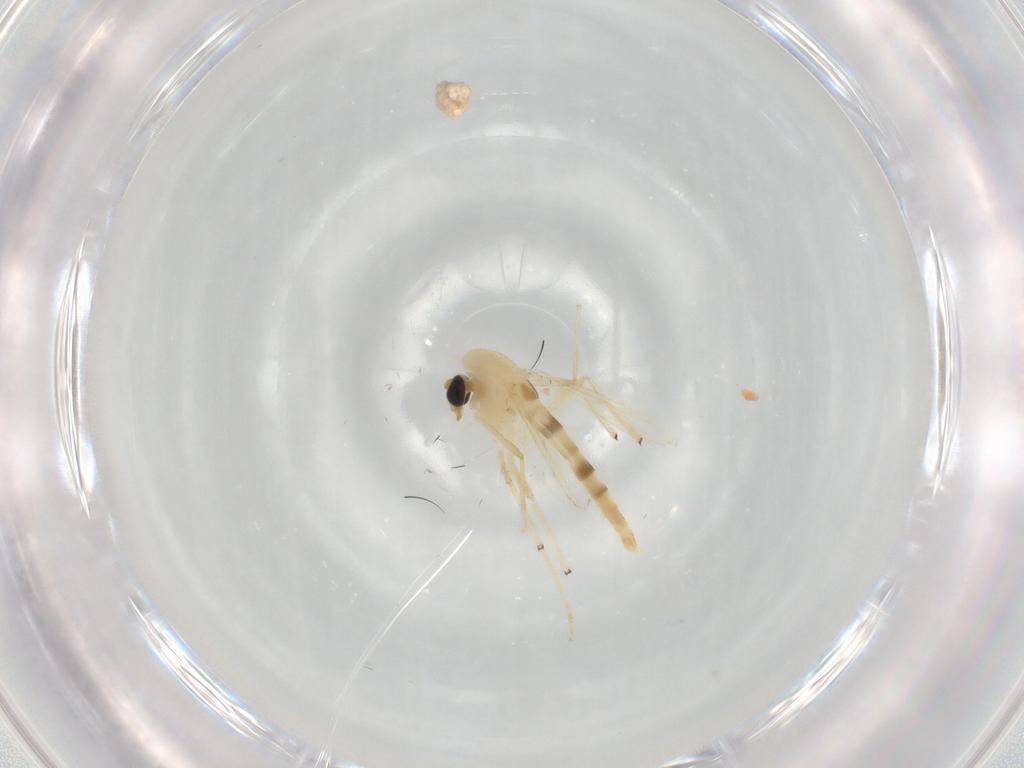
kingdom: Animalia
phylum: Arthropoda
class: Insecta
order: Diptera
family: Chironomidae
